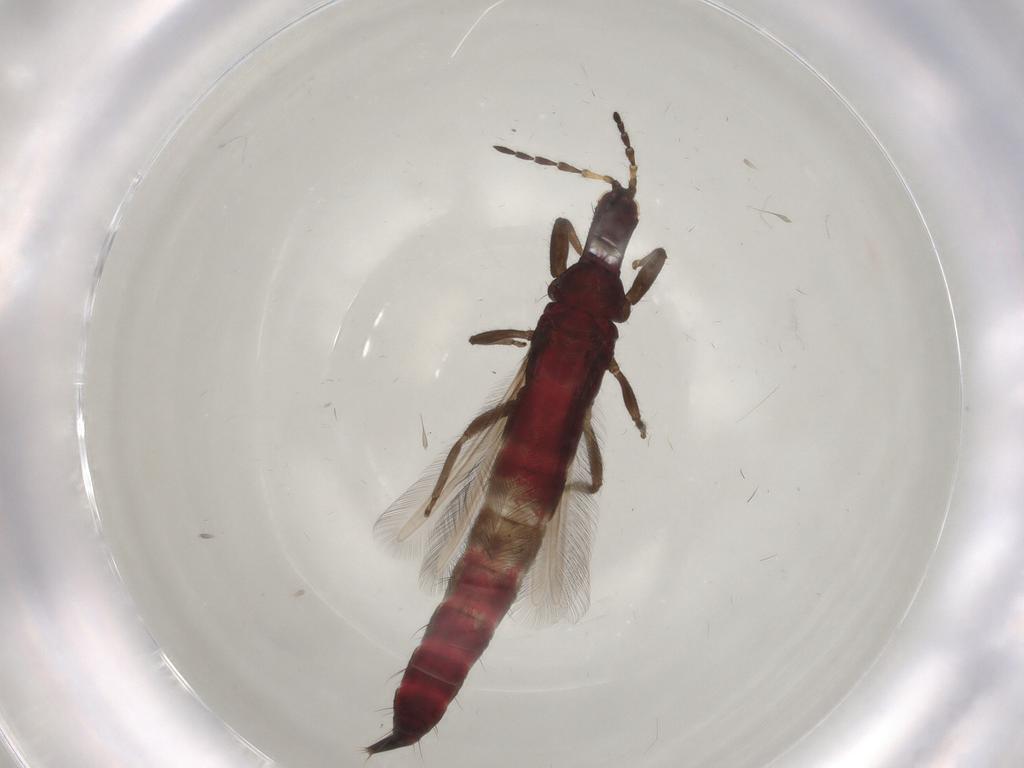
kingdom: Animalia
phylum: Arthropoda
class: Insecta
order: Thysanoptera
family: Phlaeothripidae
